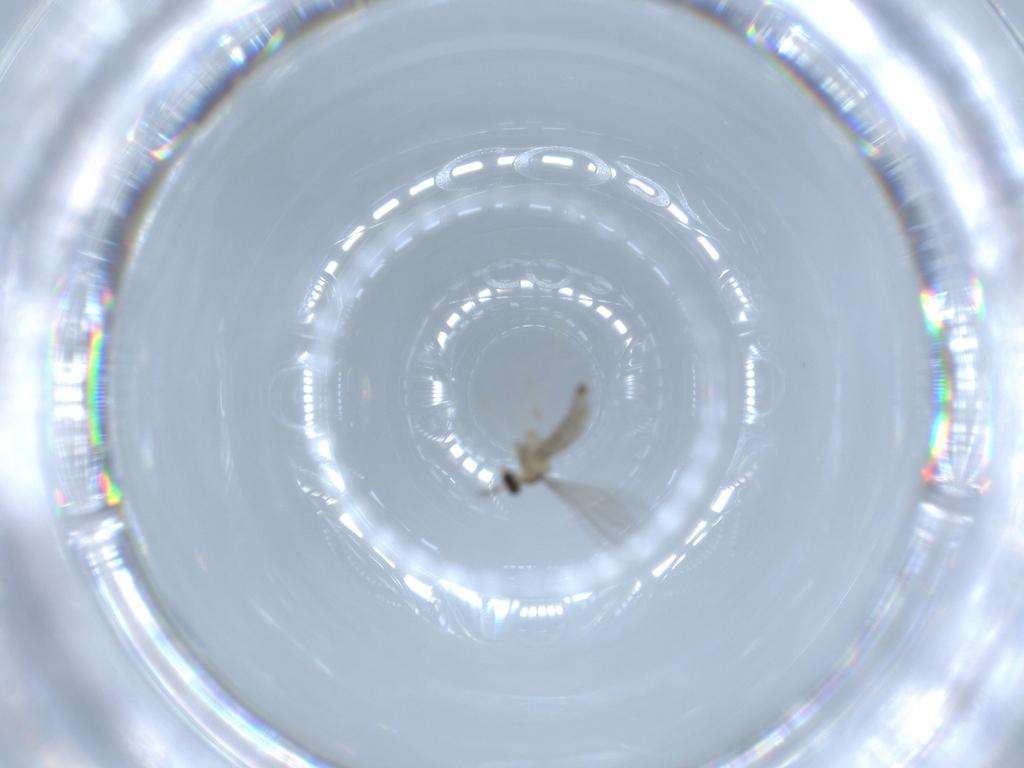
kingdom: Animalia
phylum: Arthropoda
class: Insecta
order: Diptera
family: Cecidomyiidae
